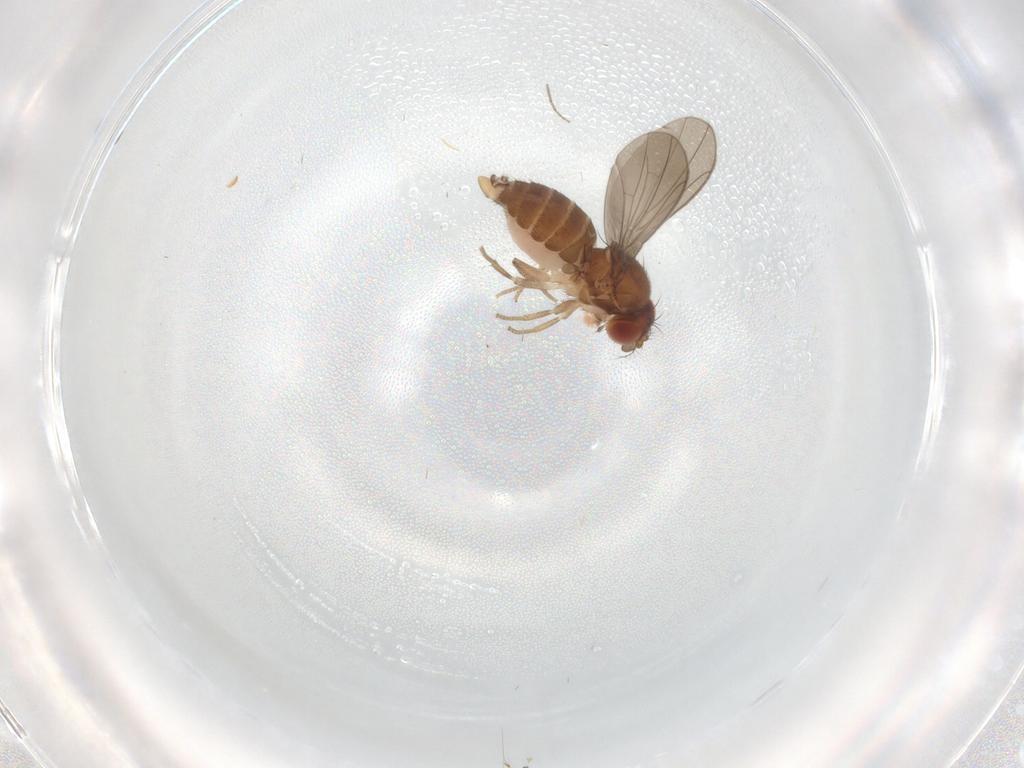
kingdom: Animalia
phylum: Arthropoda
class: Insecta
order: Diptera
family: Drosophilidae
